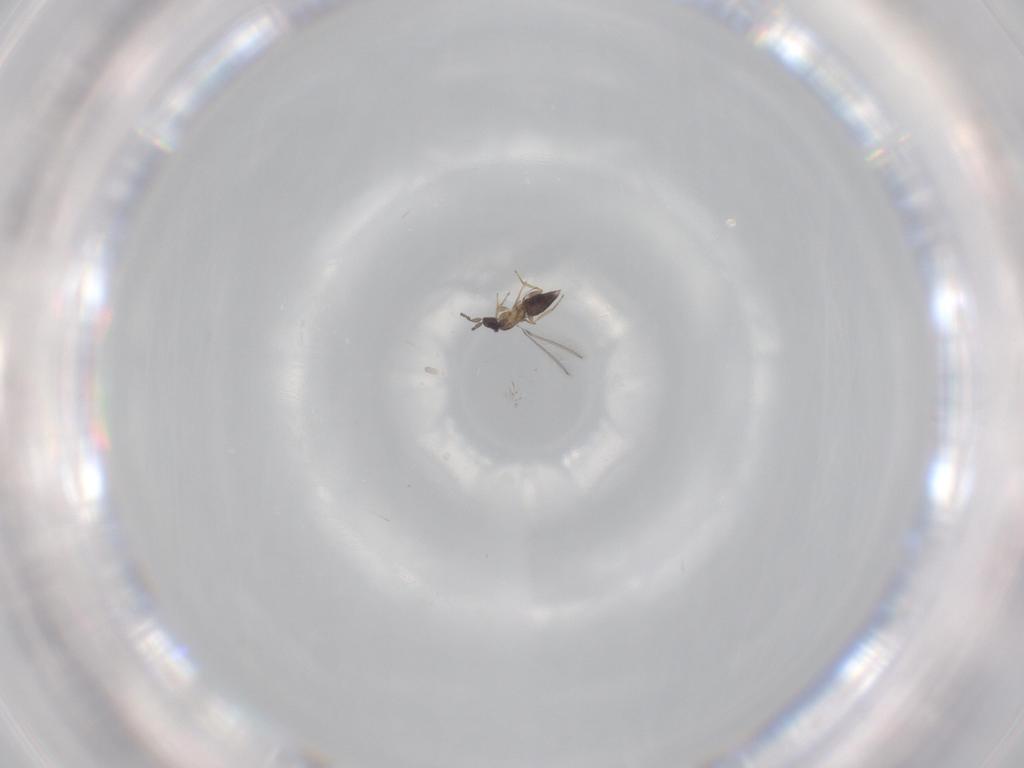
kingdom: Animalia
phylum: Arthropoda
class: Insecta
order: Hymenoptera
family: Mymaridae
